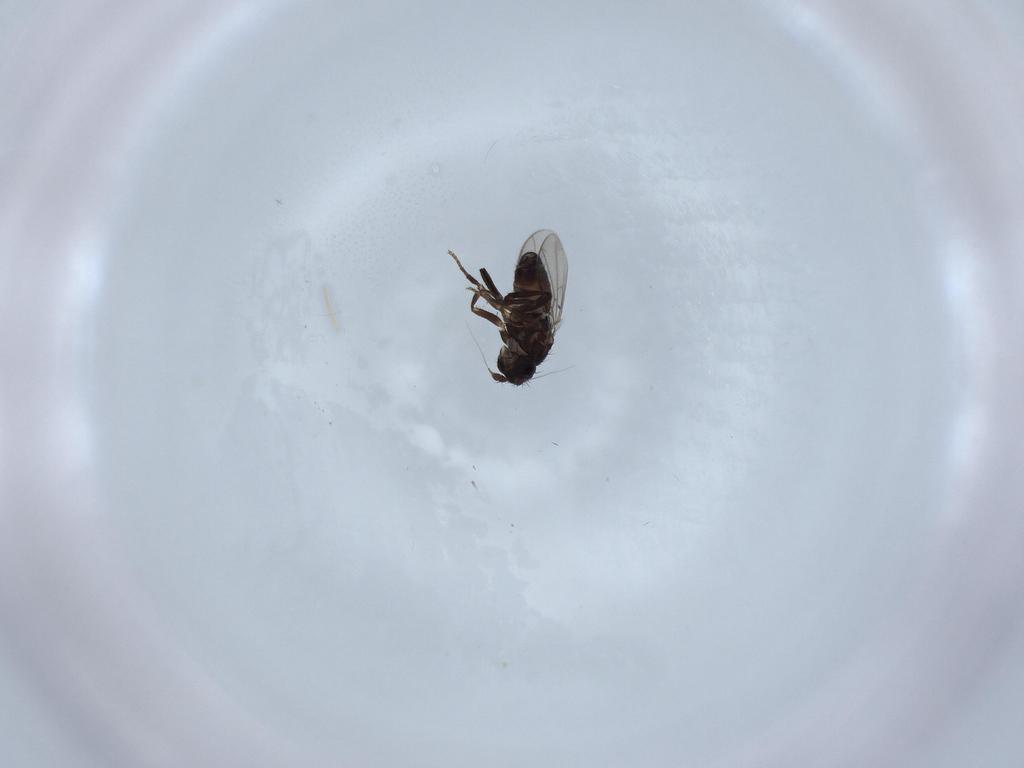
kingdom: Animalia
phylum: Arthropoda
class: Insecta
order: Diptera
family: Sphaeroceridae
